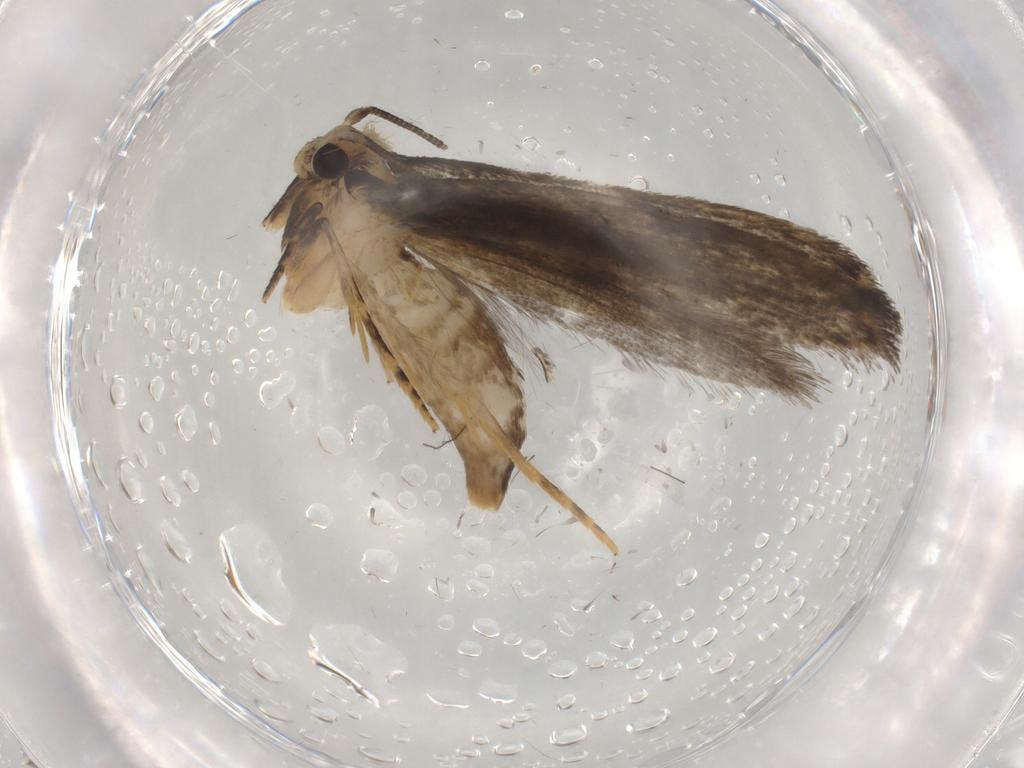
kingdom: Animalia
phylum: Arthropoda
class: Insecta
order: Lepidoptera
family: Tineidae
